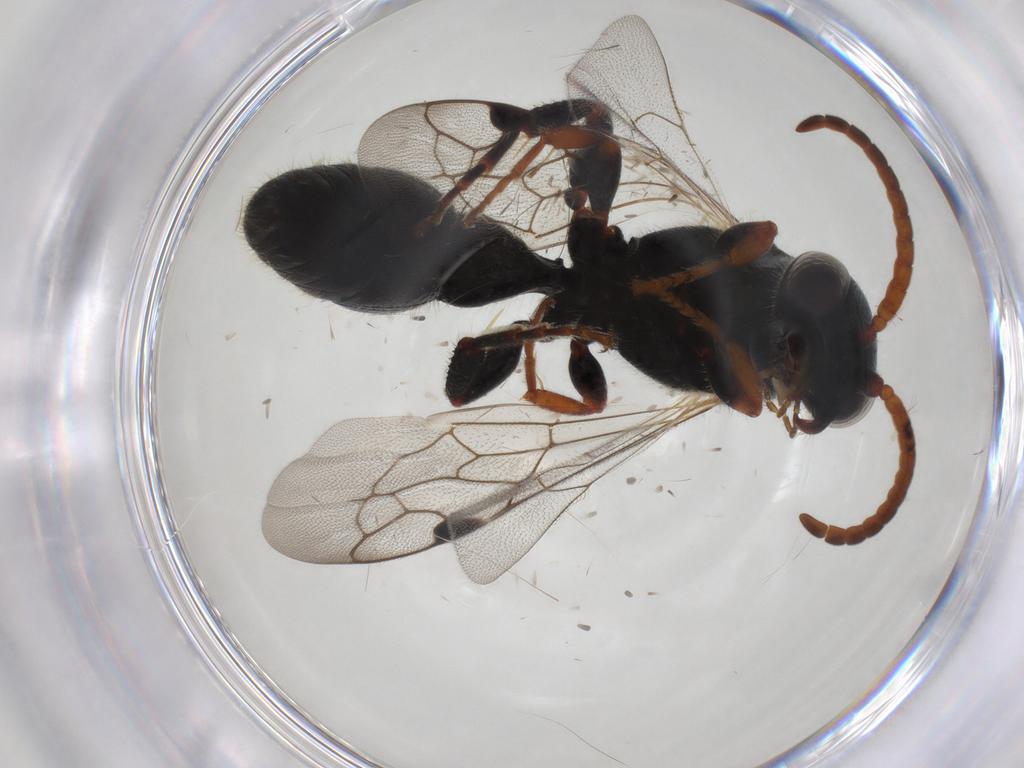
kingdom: Animalia
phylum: Arthropoda
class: Insecta
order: Hymenoptera
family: Tiphiidae
